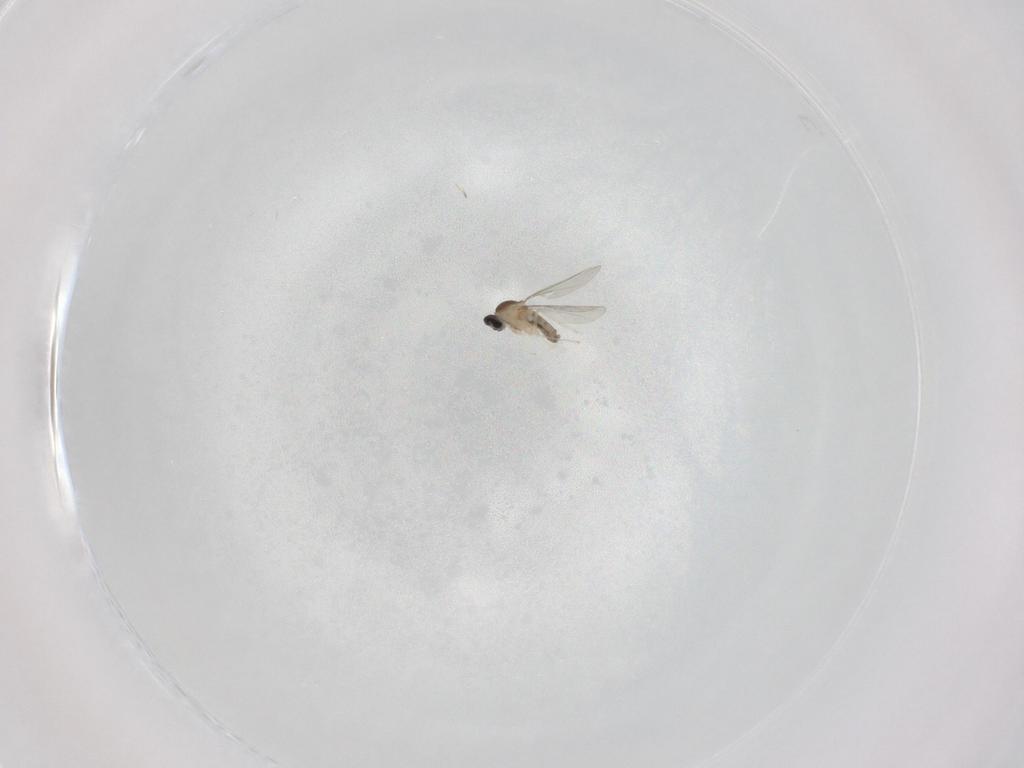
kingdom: Animalia
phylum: Arthropoda
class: Insecta
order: Diptera
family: Cecidomyiidae
